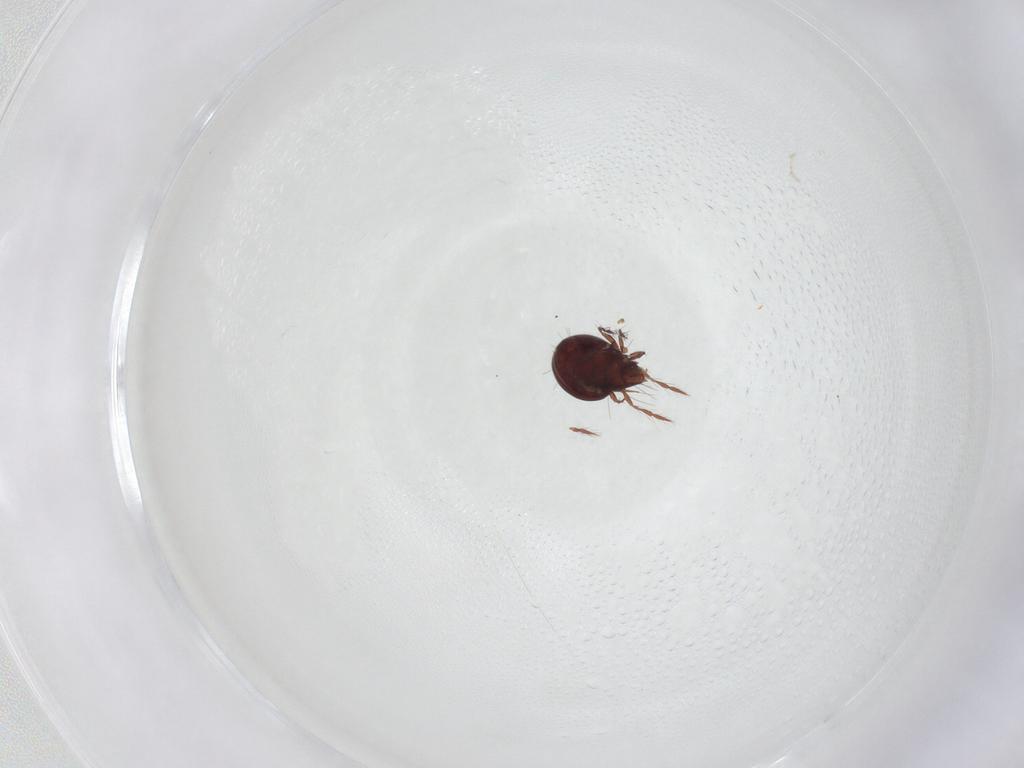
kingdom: Animalia
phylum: Arthropoda
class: Arachnida
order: Sarcoptiformes
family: Ceratoppiidae
